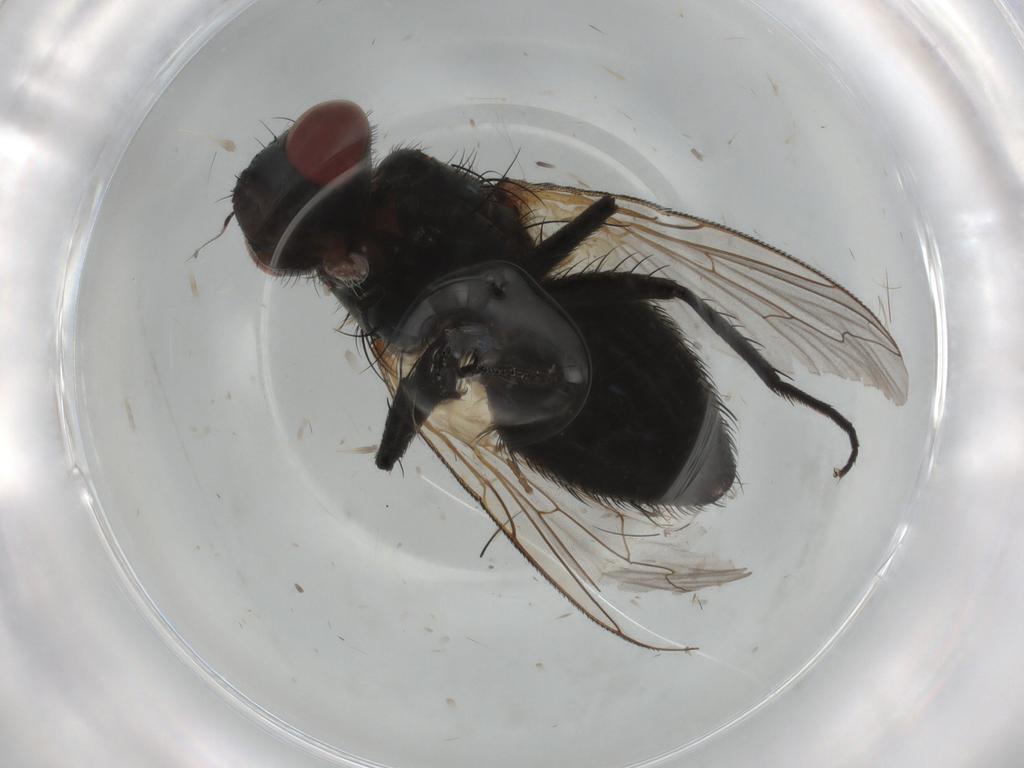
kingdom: Animalia
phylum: Arthropoda
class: Insecta
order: Diptera
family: Sarcophagidae
